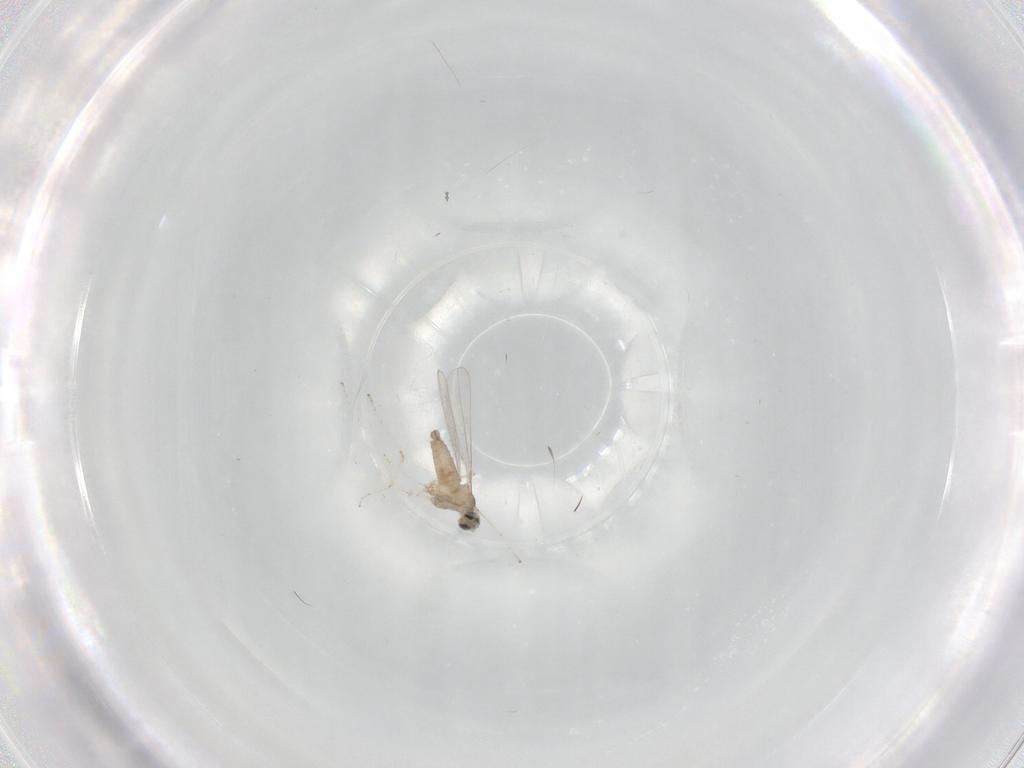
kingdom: Animalia
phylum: Arthropoda
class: Insecta
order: Diptera
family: Cecidomyiidae
